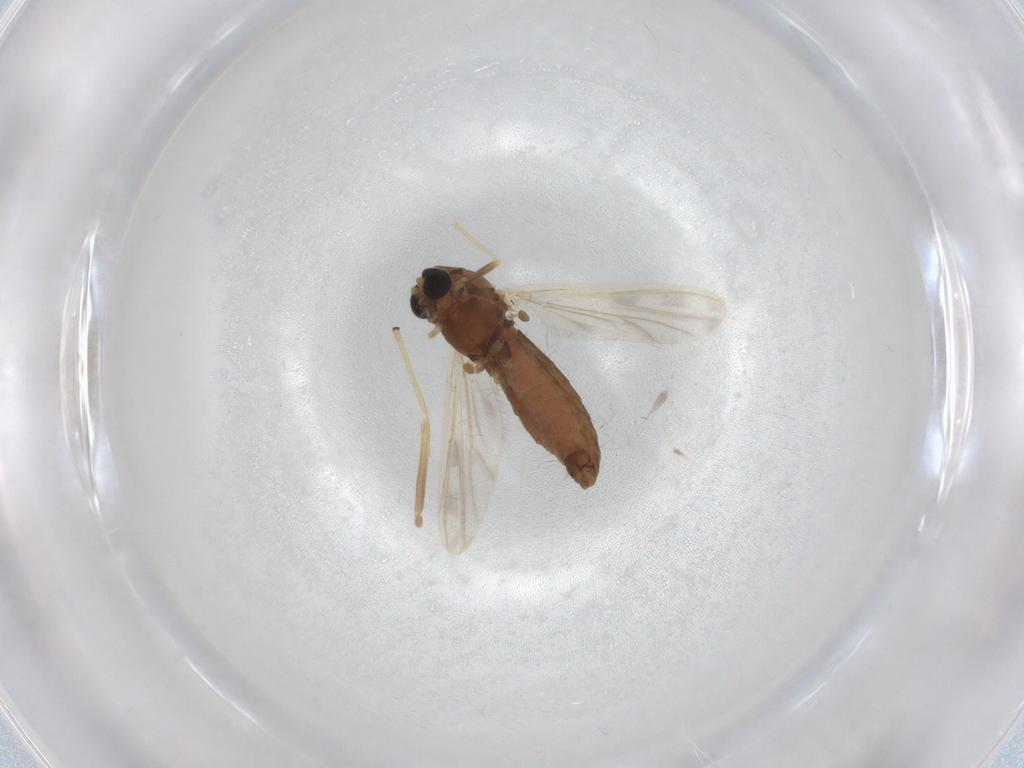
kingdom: Animalia
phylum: Arthropoda
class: Insecta
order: Diptera
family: Chironomidae
